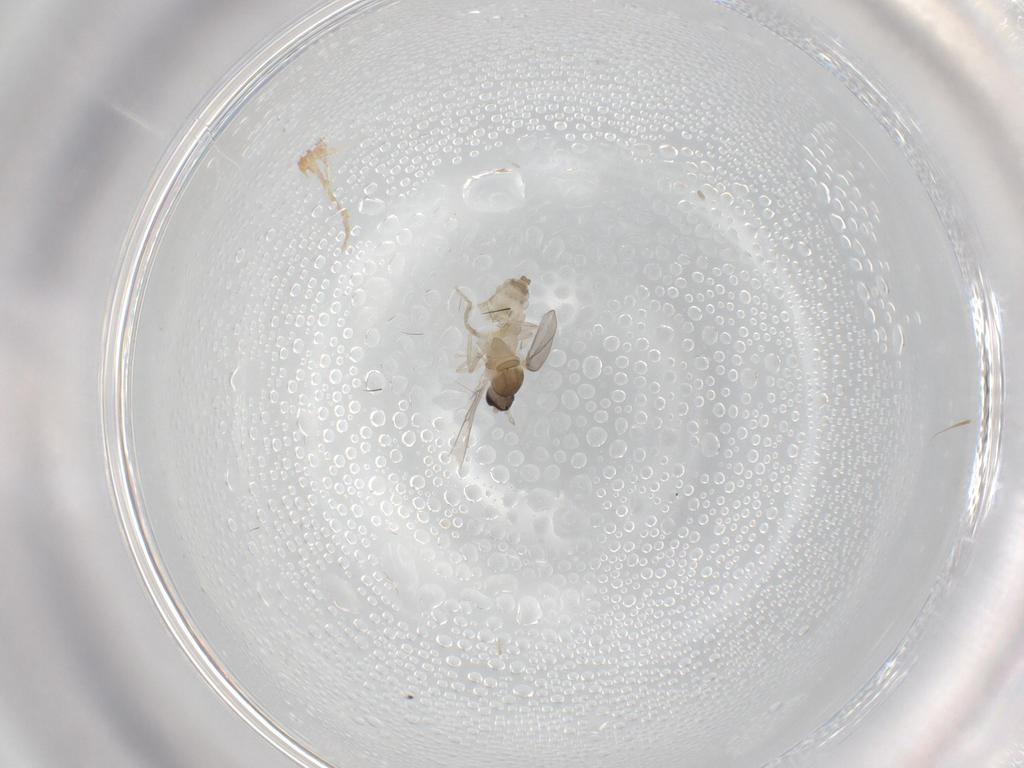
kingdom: Animalia
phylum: Arthropoda
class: Insecta
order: Diptera
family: Cecidomyiidae
